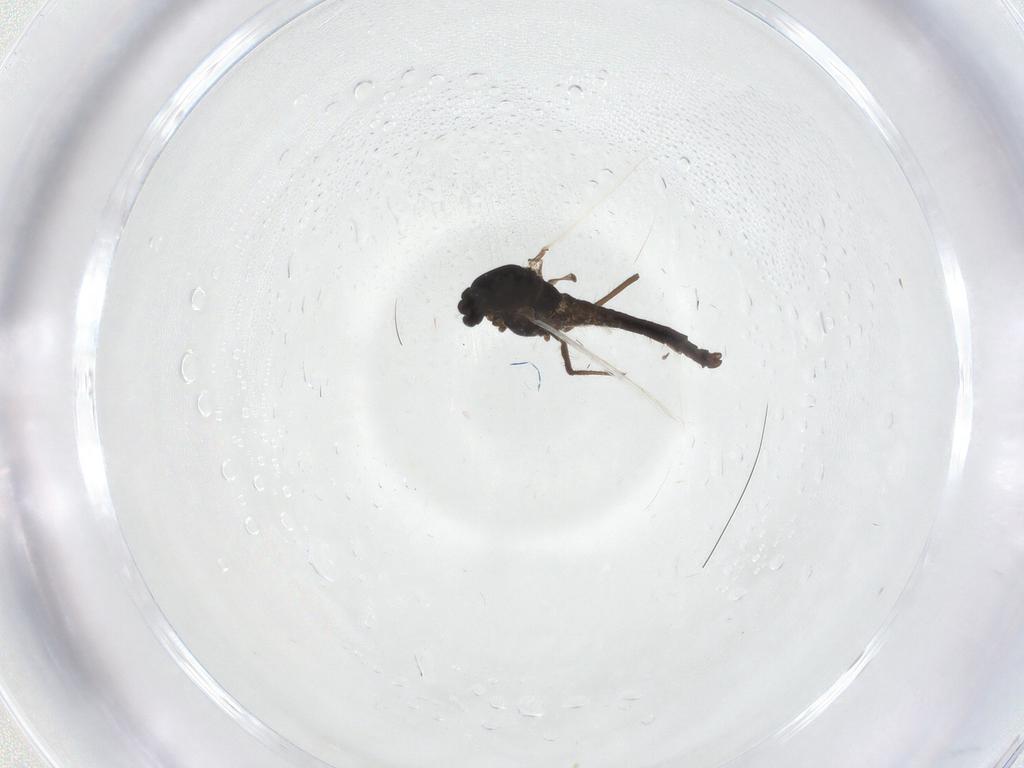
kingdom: Animalia
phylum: Arthropoda
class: Insecta
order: Diptera
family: Chironomidae
